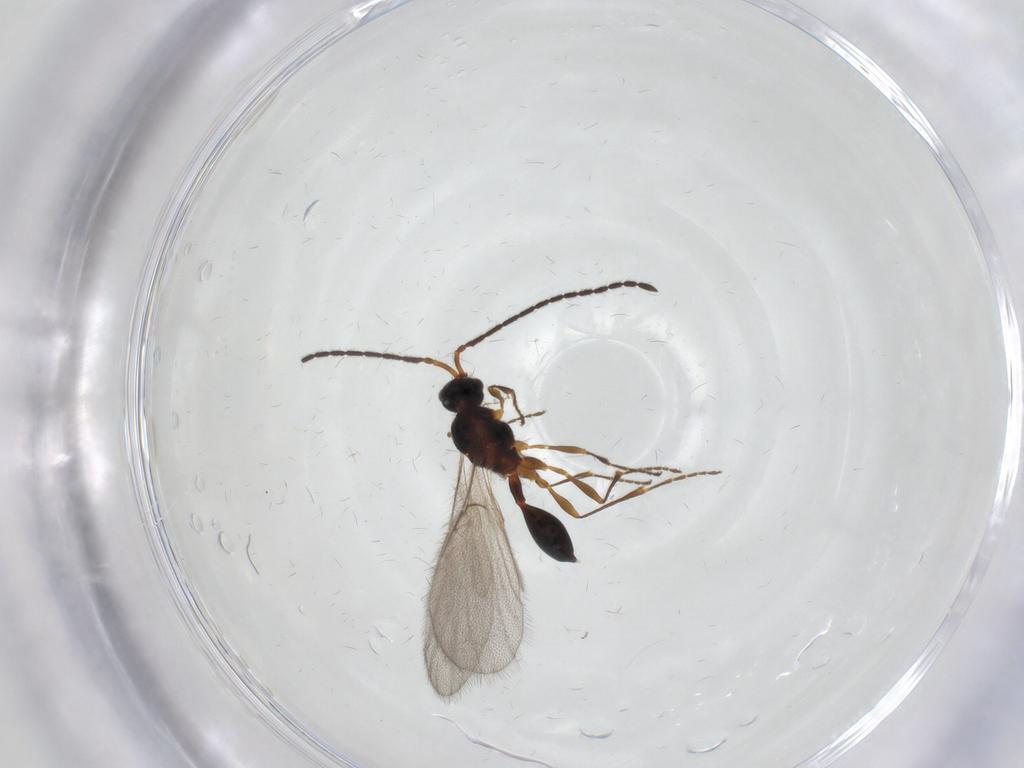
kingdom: Animalia
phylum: Arthropoda
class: Insecta
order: Hymenoptera
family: Diapriidae
